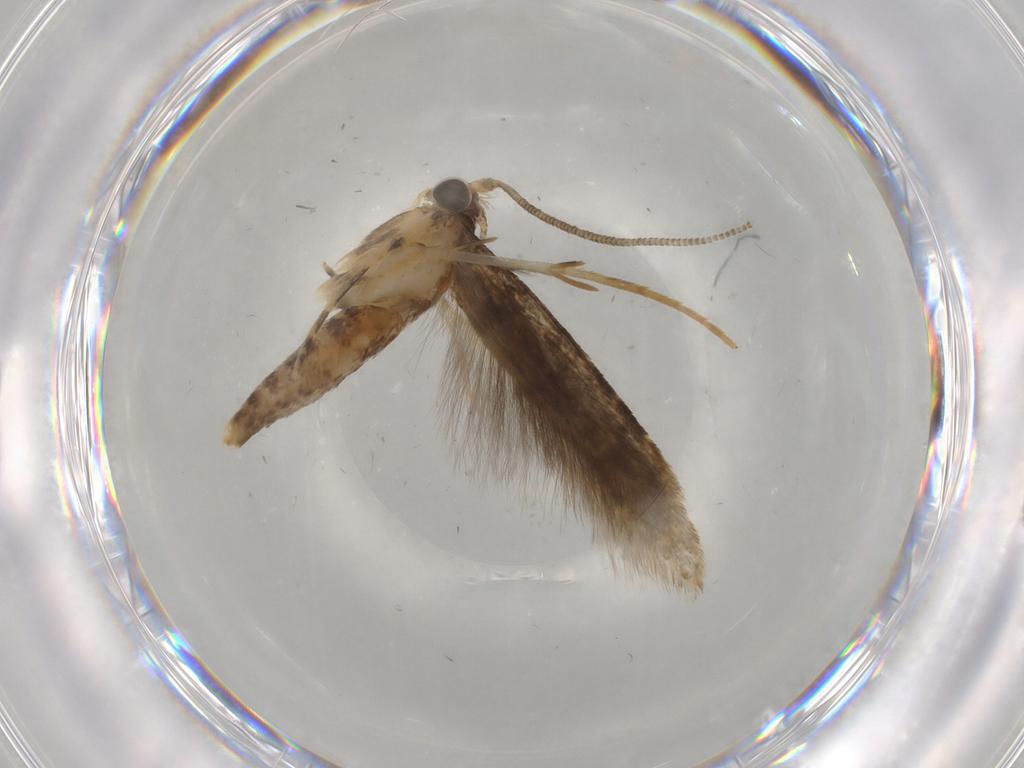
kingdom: Animalia
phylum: Arthropoda
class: Insecta
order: Lepidoptera
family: Tineidae
